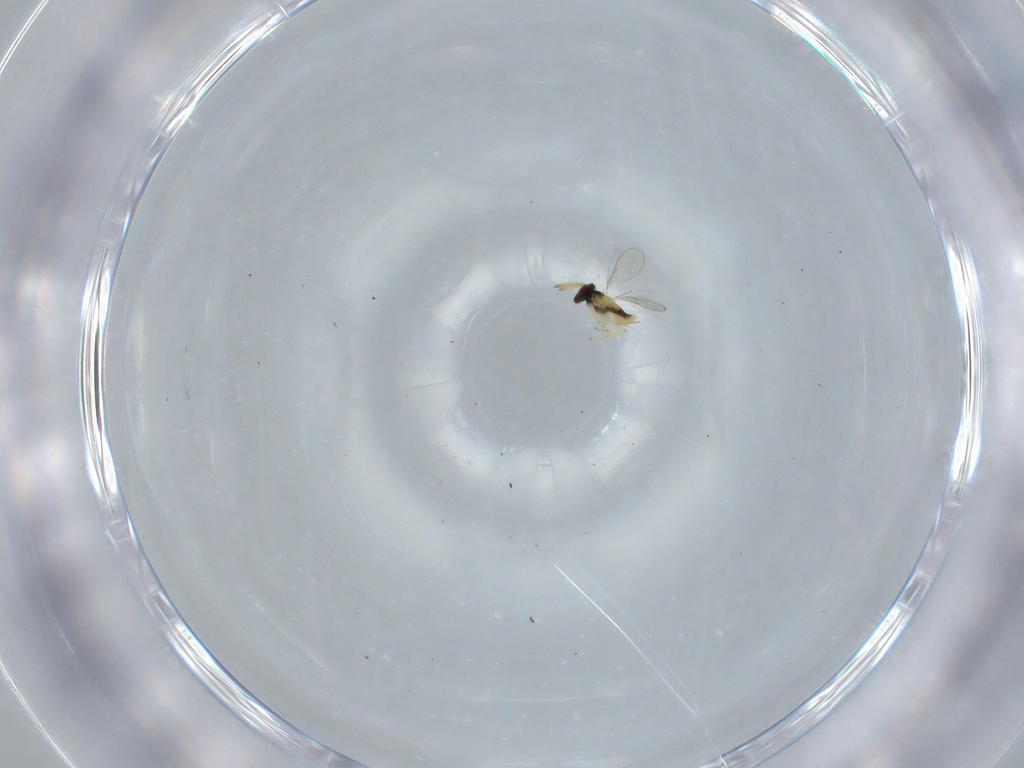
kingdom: Animalia
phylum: Arthropoda
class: Insecta
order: Hymenoptera
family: Aphelinidae
